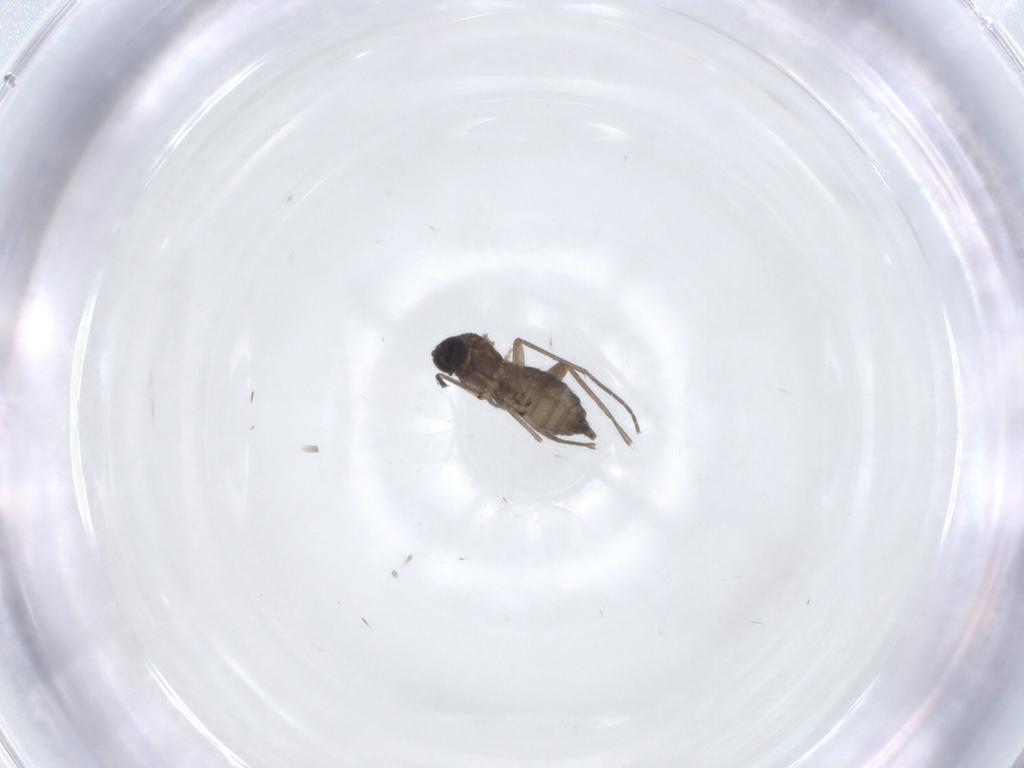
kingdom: Animalia
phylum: Arthropoda
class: Insecta
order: Diptera
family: Sciaridae
